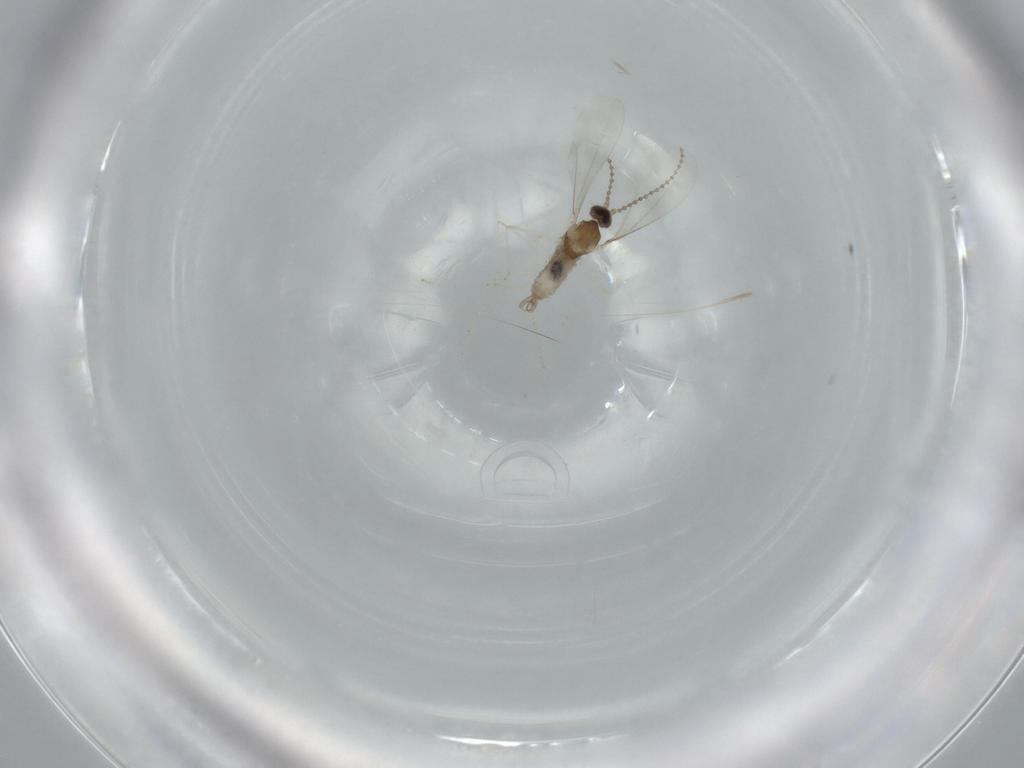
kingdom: Animalia
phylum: Arthropoda
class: Insecta
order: Diptera
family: Cecidomyiidae
